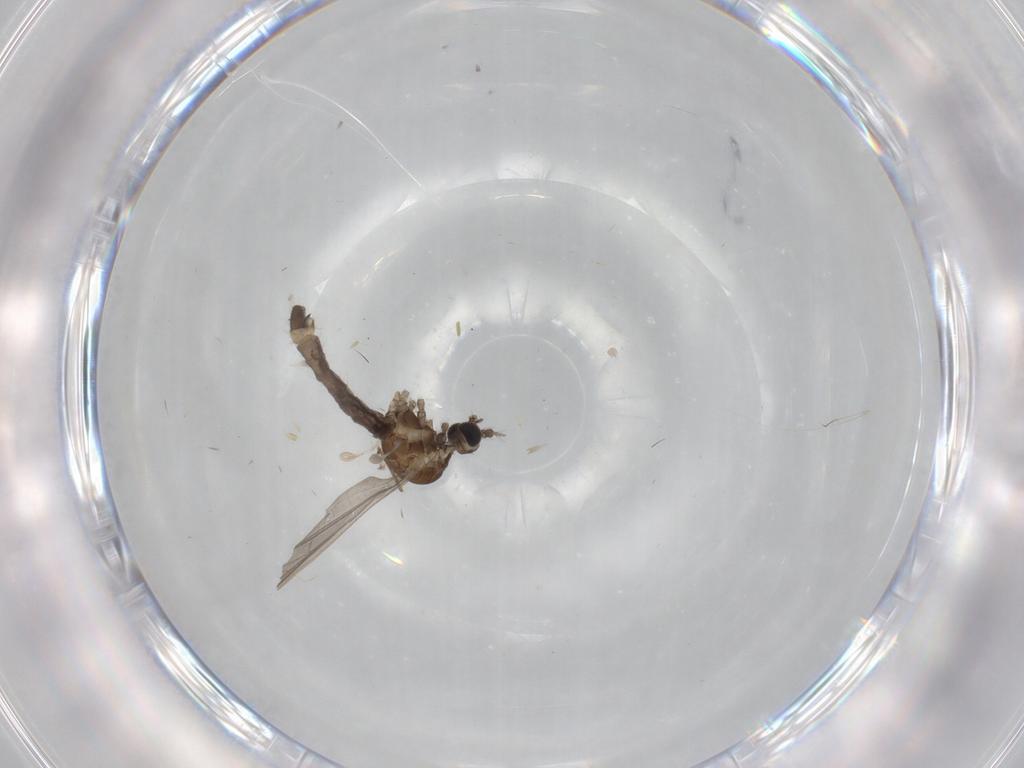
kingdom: Animalia
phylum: Arthropoda
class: Insecta
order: Diptera
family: Limoniidae
